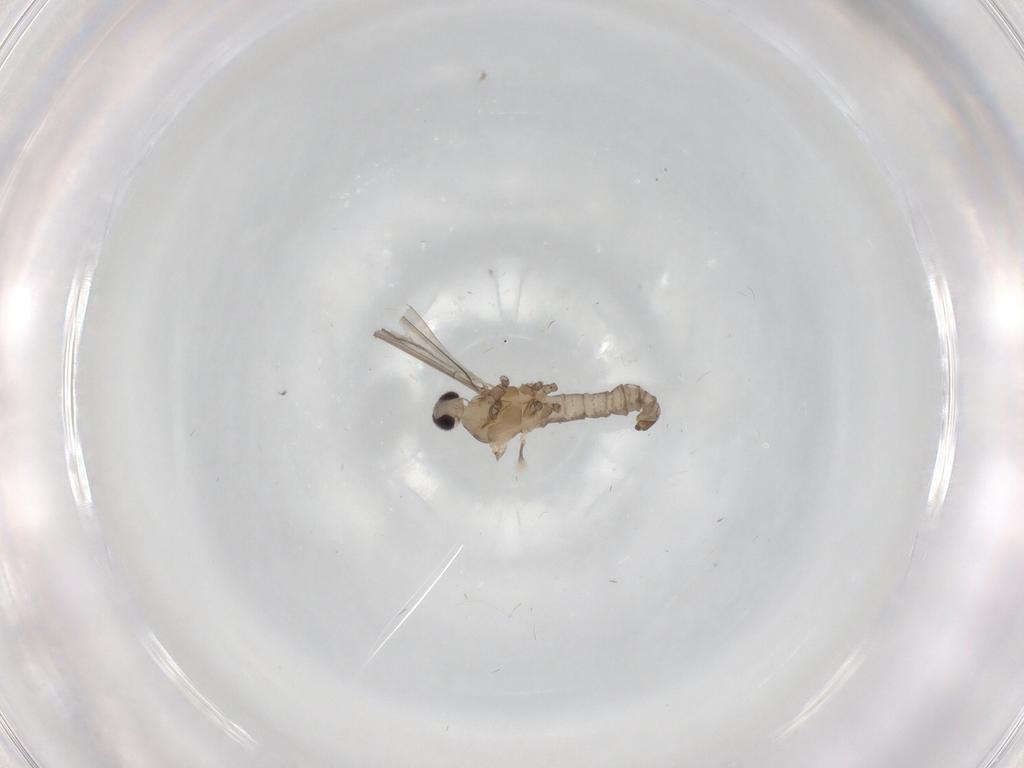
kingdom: Animalia
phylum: Arthropoda
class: Insecta
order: Diptera
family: Cecidomyiidae
